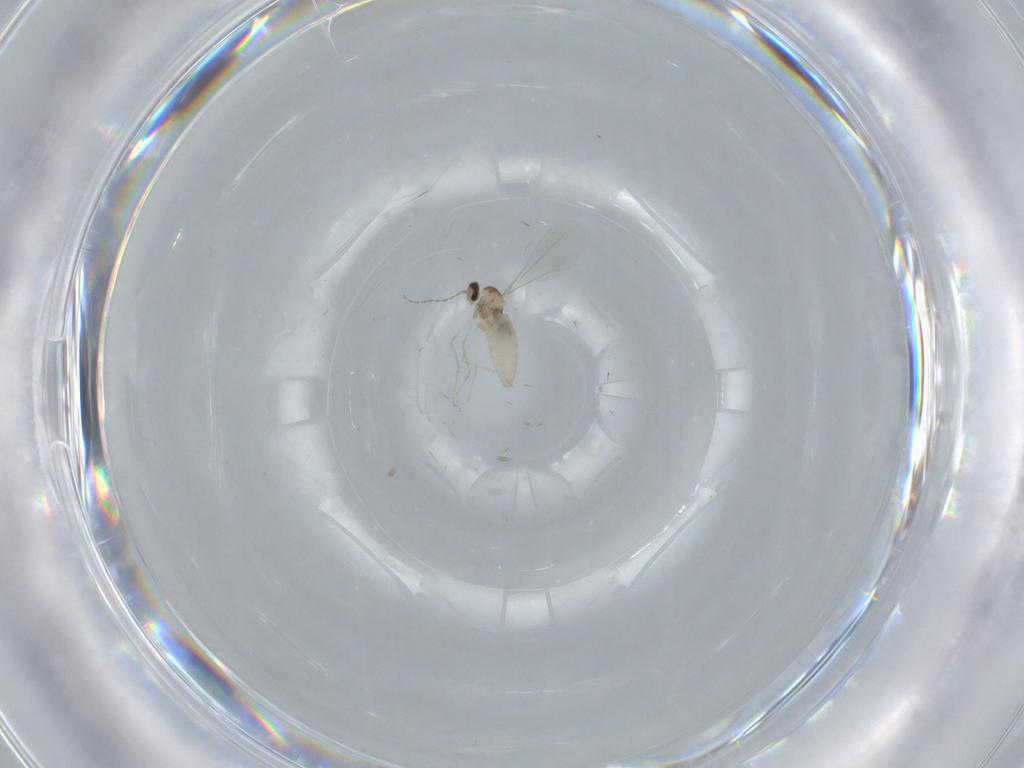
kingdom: Animalia
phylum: Arthropoda
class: Insecta
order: Diptera
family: Cecidomyiidae
